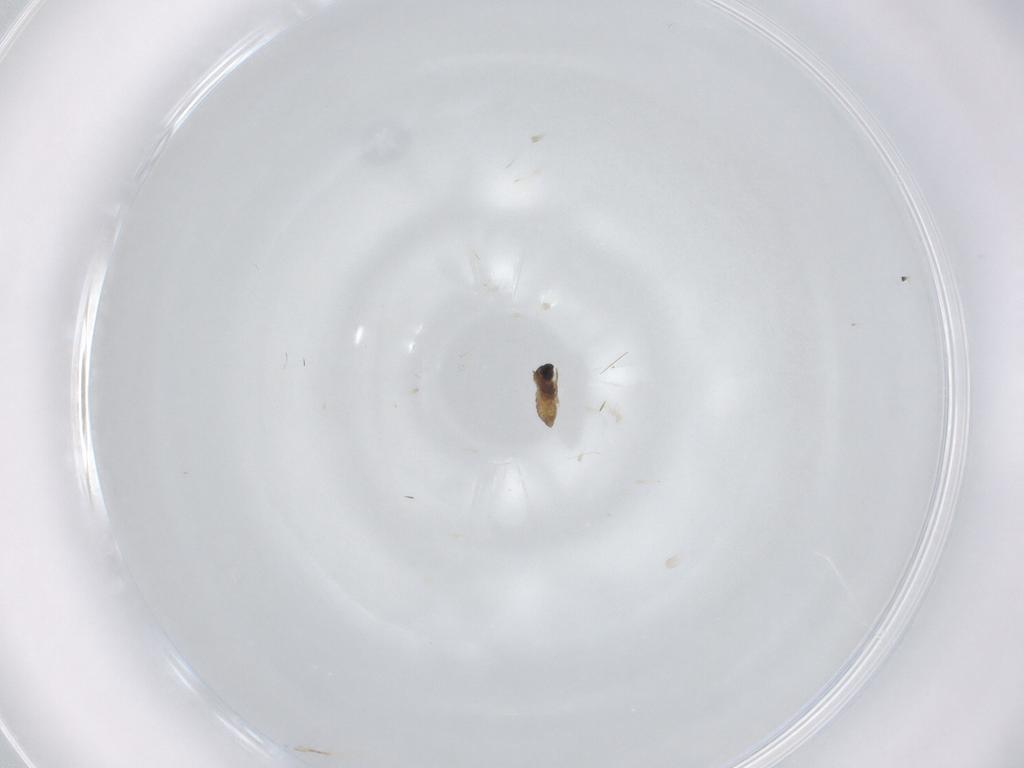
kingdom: Animalia
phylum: Arthropoda
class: Insecta
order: Diptera
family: Cecidomyiidae
